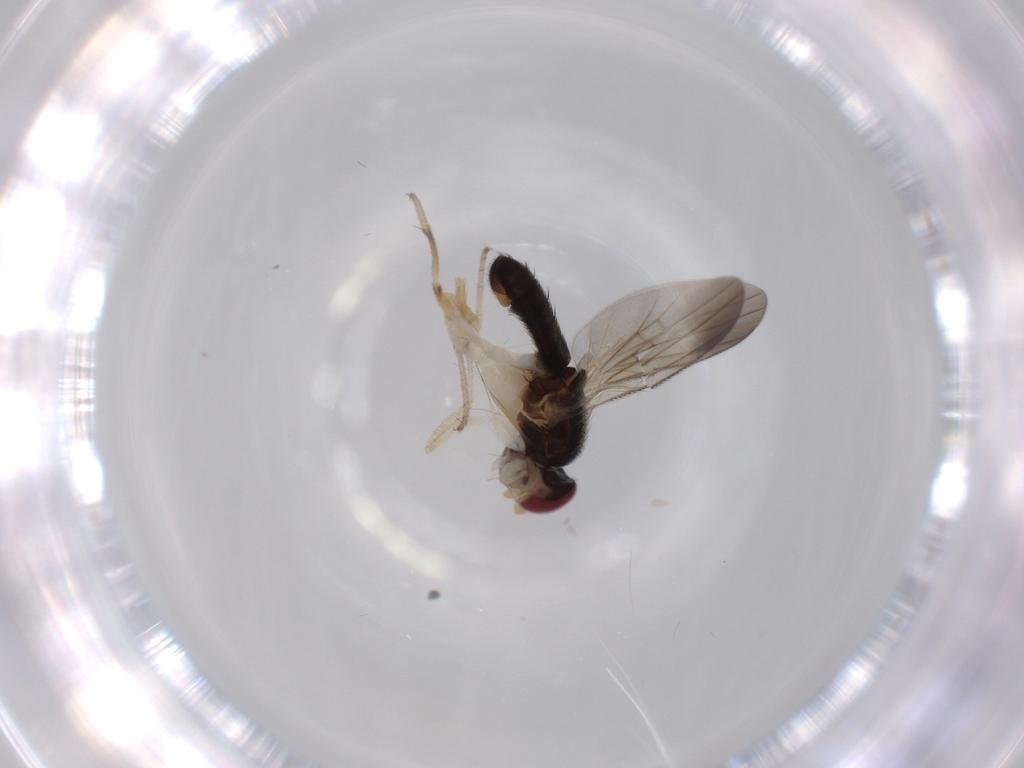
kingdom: Animalia
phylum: Arthropoda
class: Insecta
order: Diptera
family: Clusiidae
